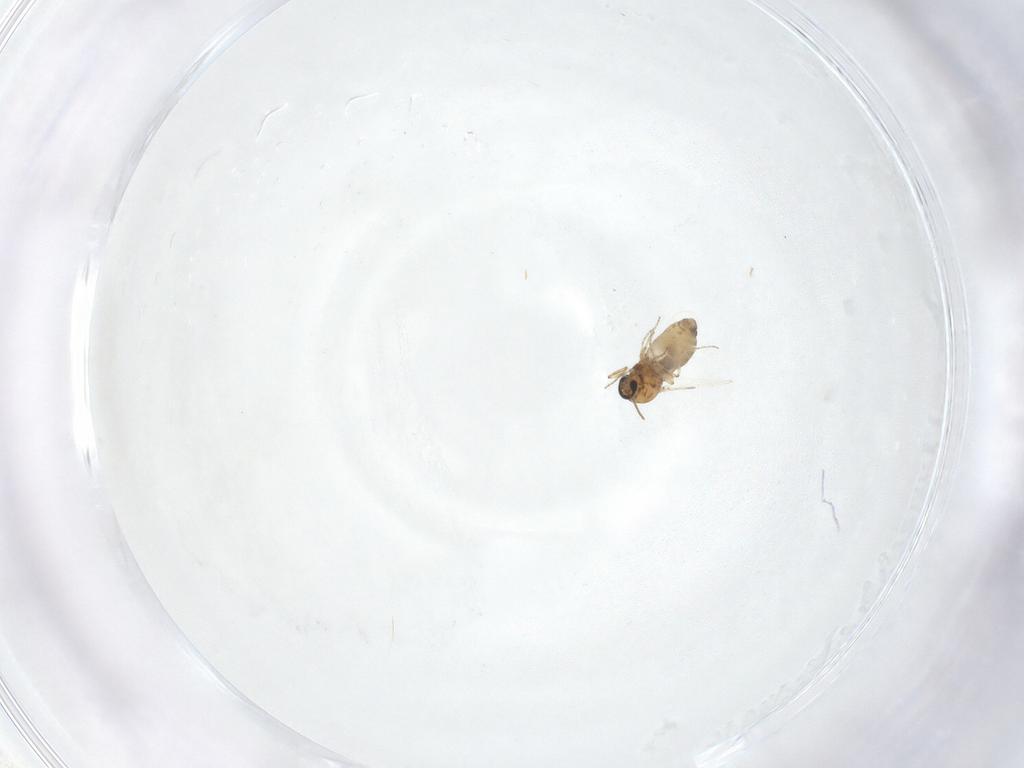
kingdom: Animalia
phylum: Arthropoda
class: Insecta
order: Diptera
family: Ceratopogonidae
